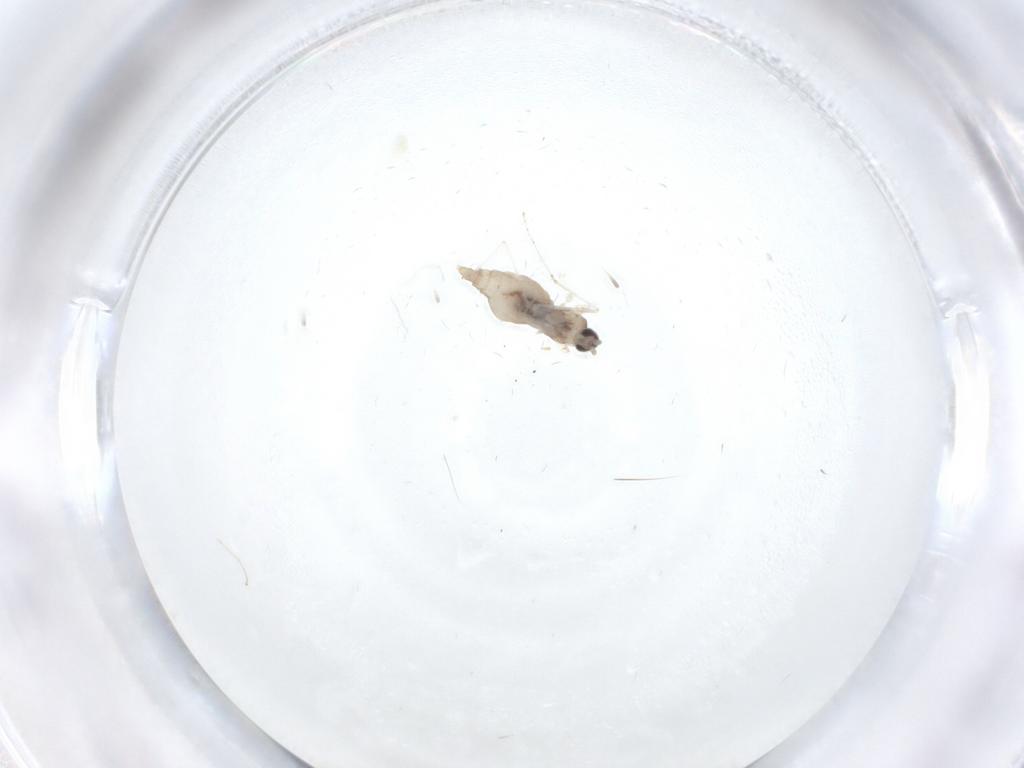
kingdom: Animalia
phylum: Arthropoda
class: Insecta
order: Diptera
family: Cecidomyiidae
